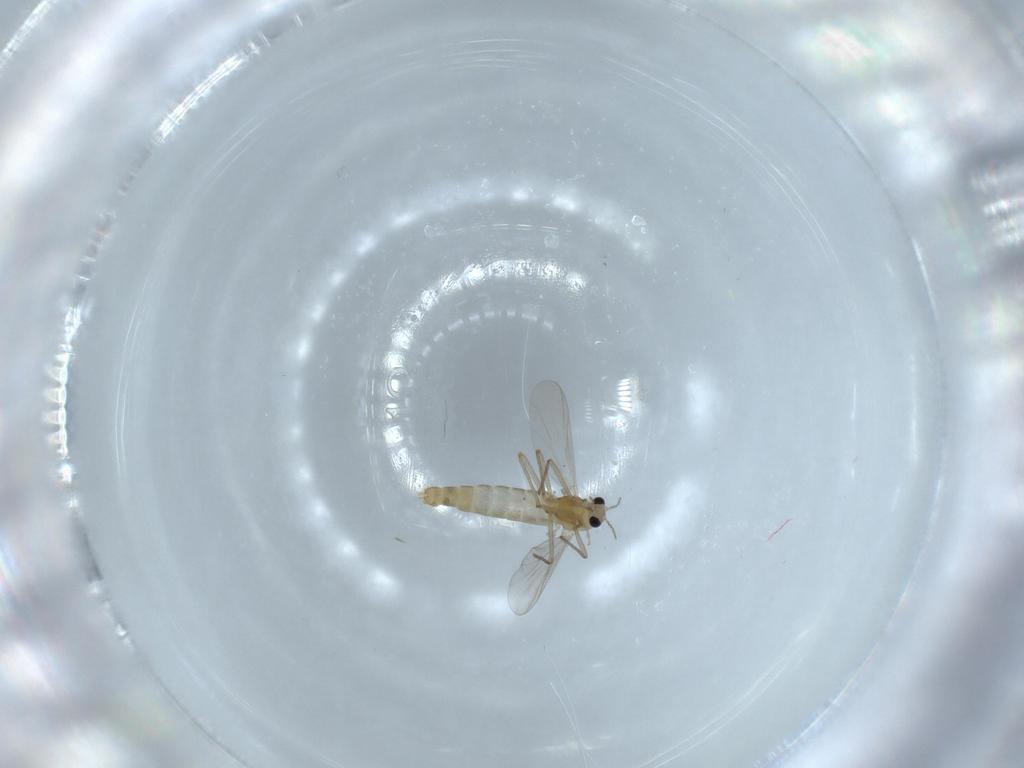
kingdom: Animalia
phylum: Arthropoda
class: Insecta
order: Diptera
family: Chironomidae
